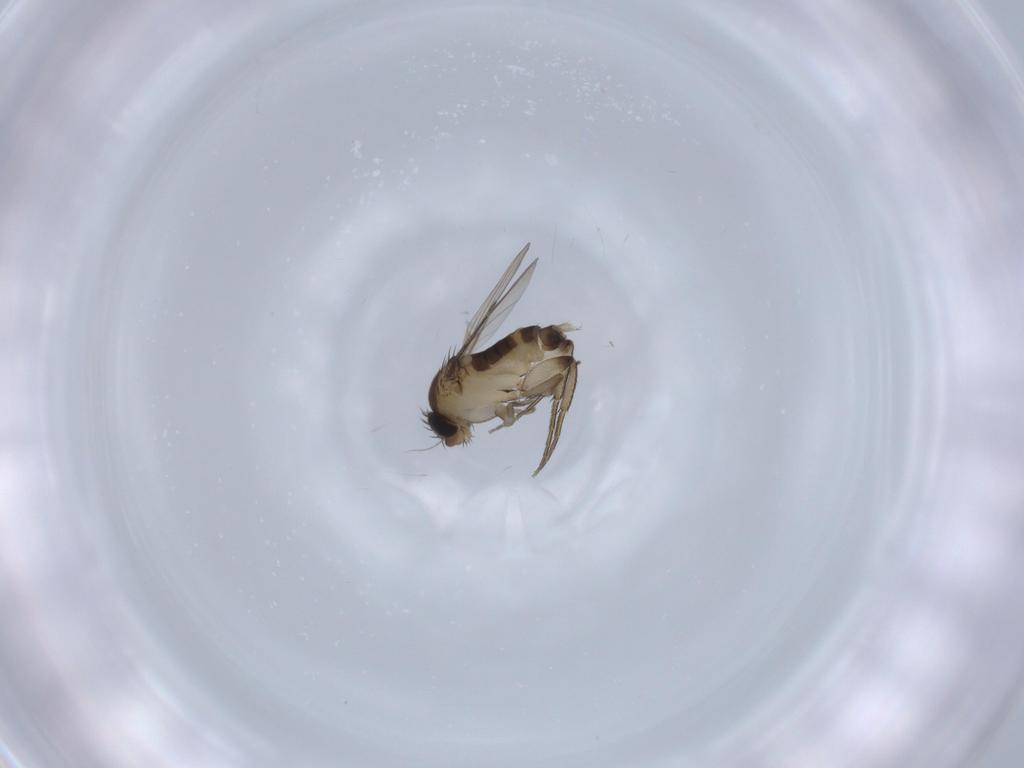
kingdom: Animalia
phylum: Arthropoda
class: Insecta
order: Diptera
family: Phoridae
